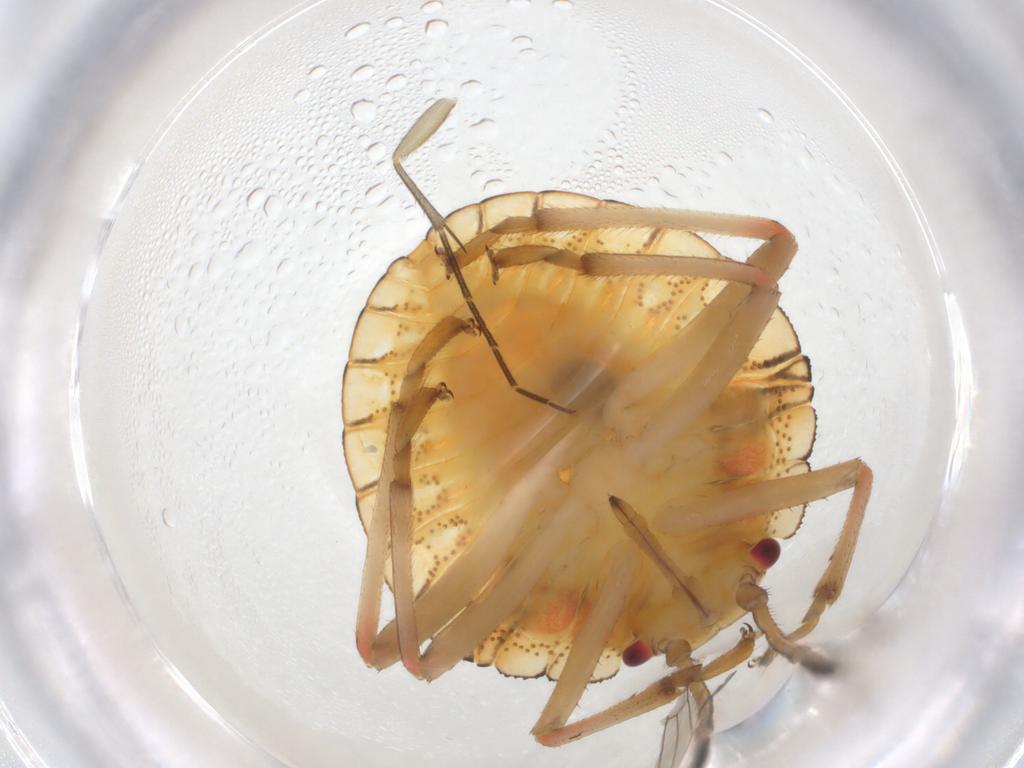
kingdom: Animalia
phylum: Arthropoda
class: Insecta
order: Hemiptera
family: Pentatomidae
